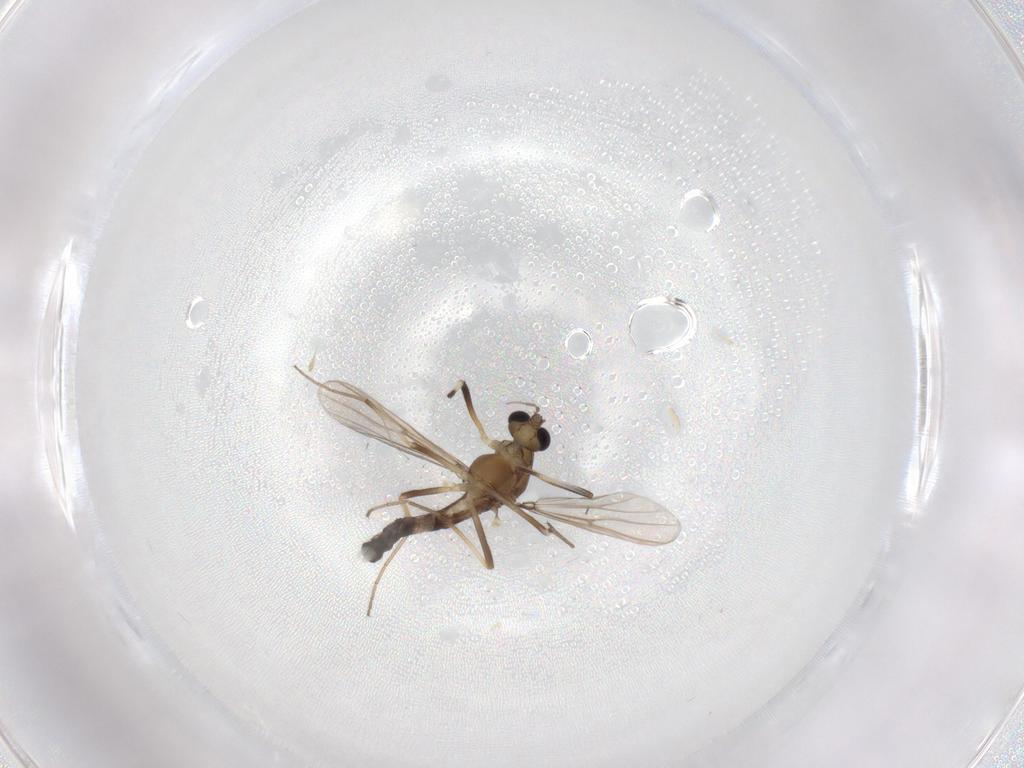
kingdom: Animalia
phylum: Arthropoda
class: Insecta
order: Diptera
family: Chironomidae
